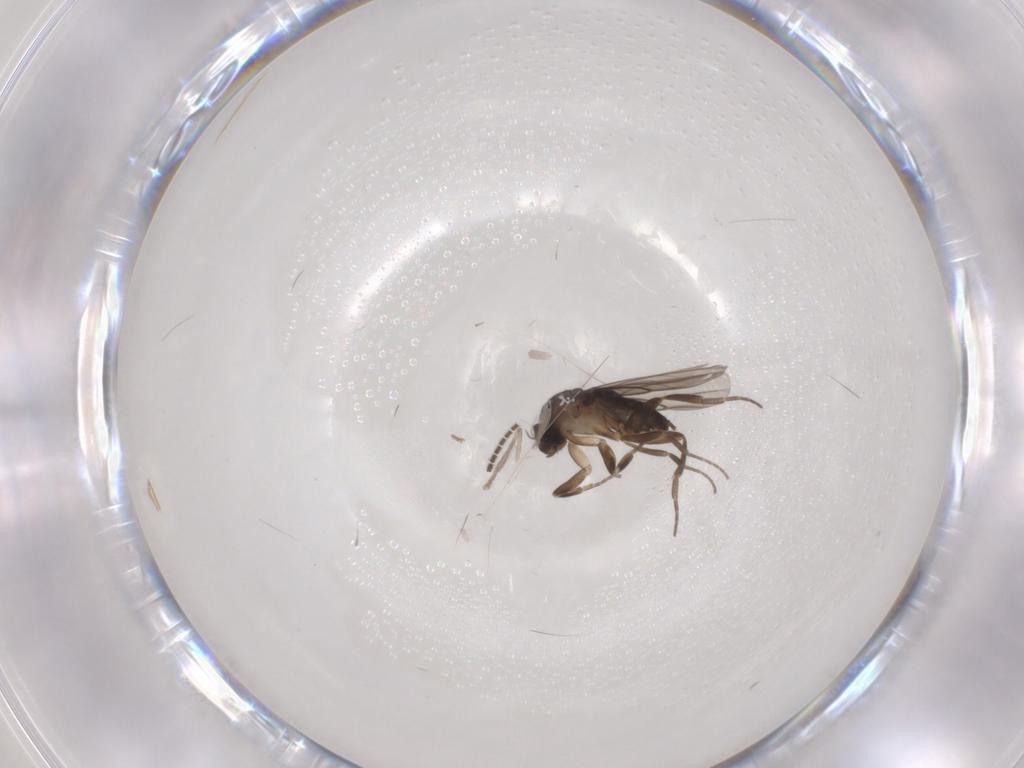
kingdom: Animalia
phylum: Arthropoda
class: Insecta
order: Diptera
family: Sciaridae
